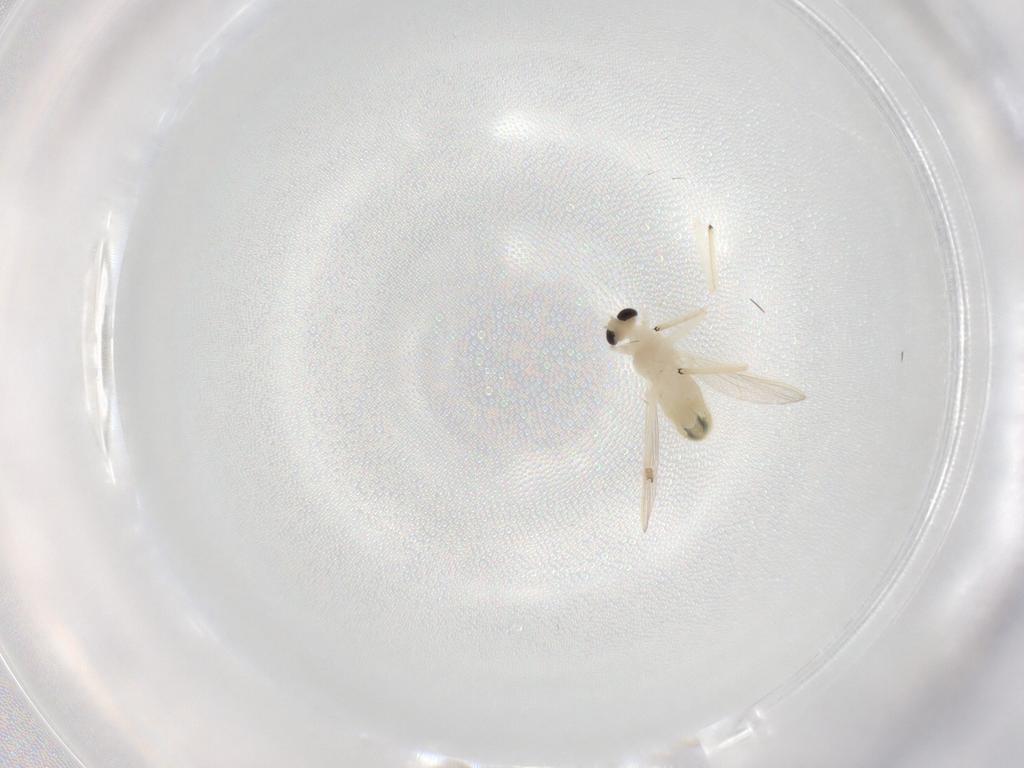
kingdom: Animalia
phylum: Arthropoda
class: Insecta
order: Diptera
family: Chironomidae
